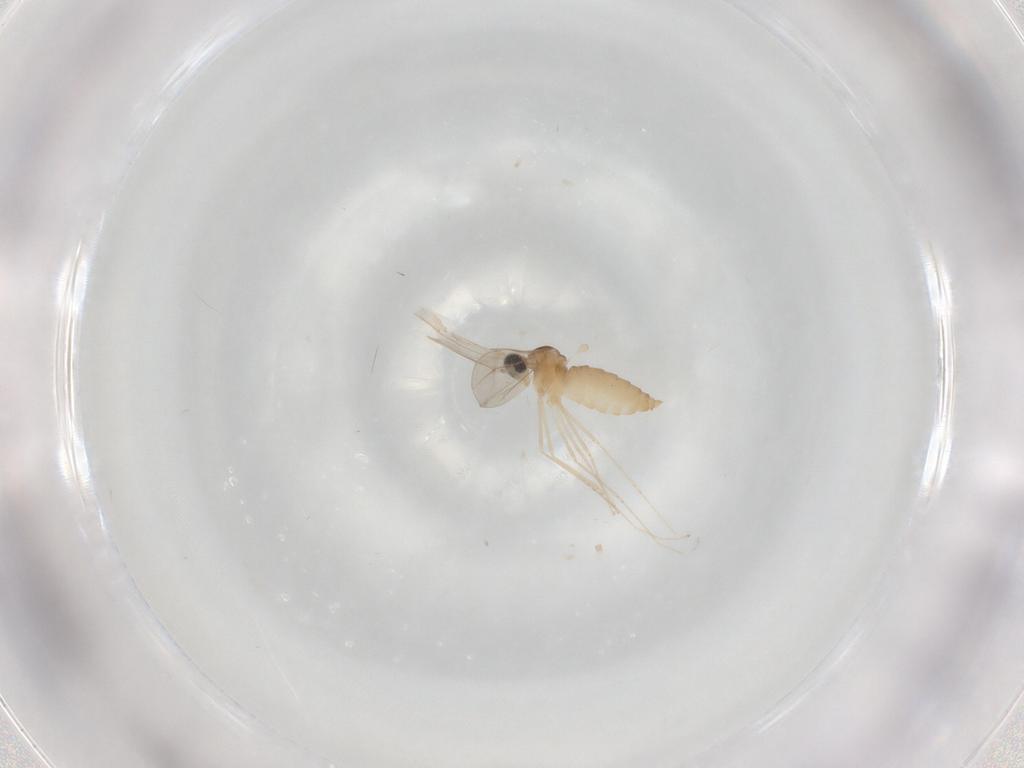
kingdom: Animalia
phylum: Arthropoda
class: Insecta
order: Diptera
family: Cecidomyiidae
